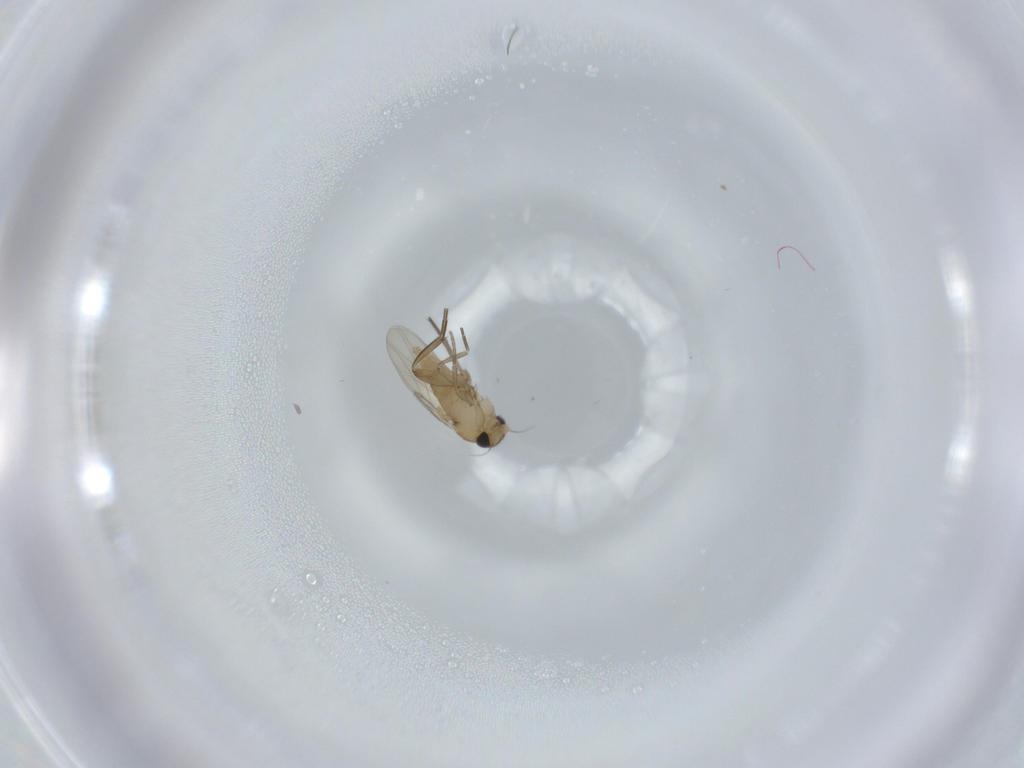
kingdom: Animalia
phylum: Arthropoda
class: Insecta
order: Diptera
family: Phoridae
